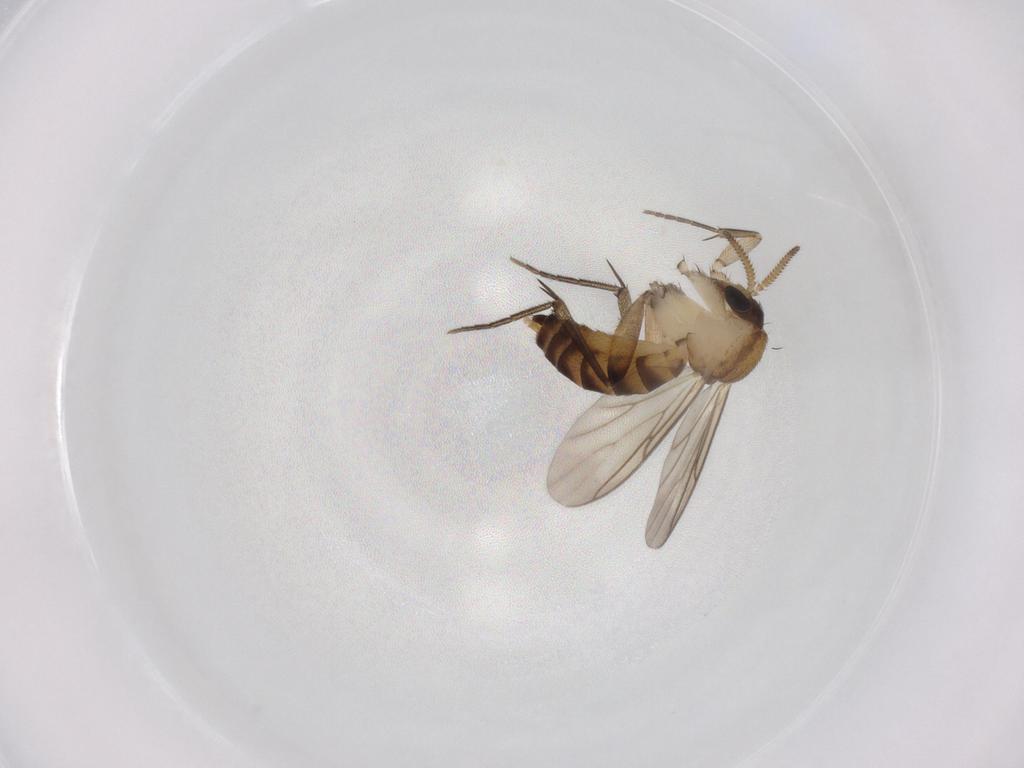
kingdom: Animalia
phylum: Arthropoda
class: Insecta
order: Diptera
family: Mycetophilidae
